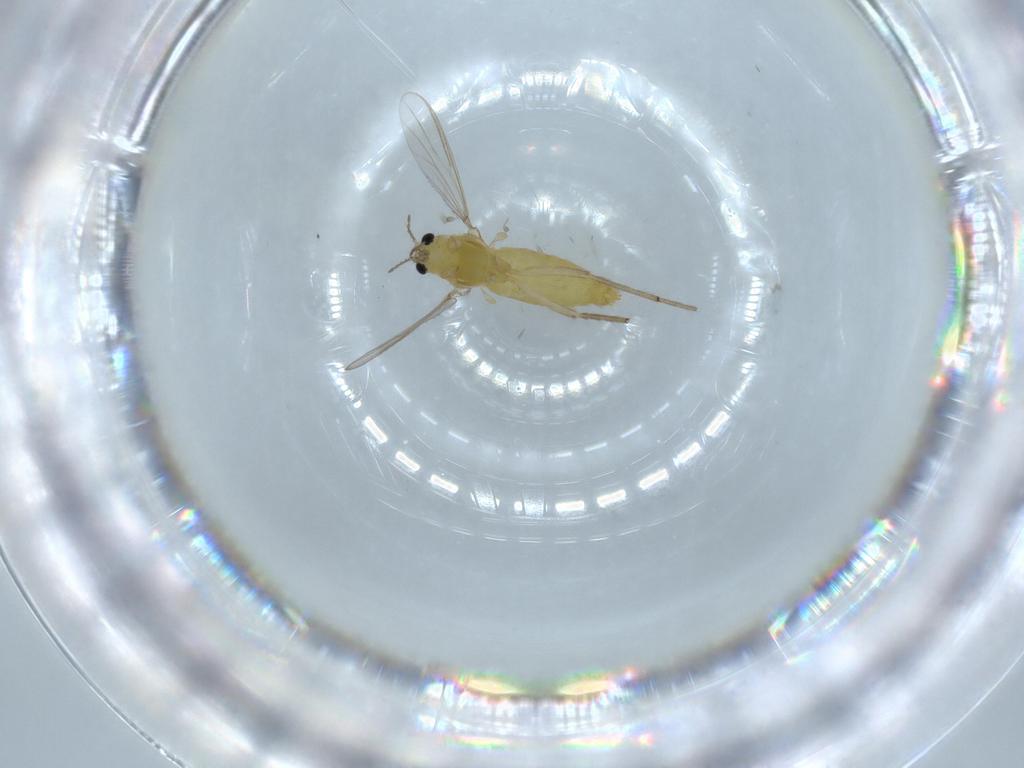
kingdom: Animalia
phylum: Arthropoda
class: Insecta
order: Diptera
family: Chironomidae
